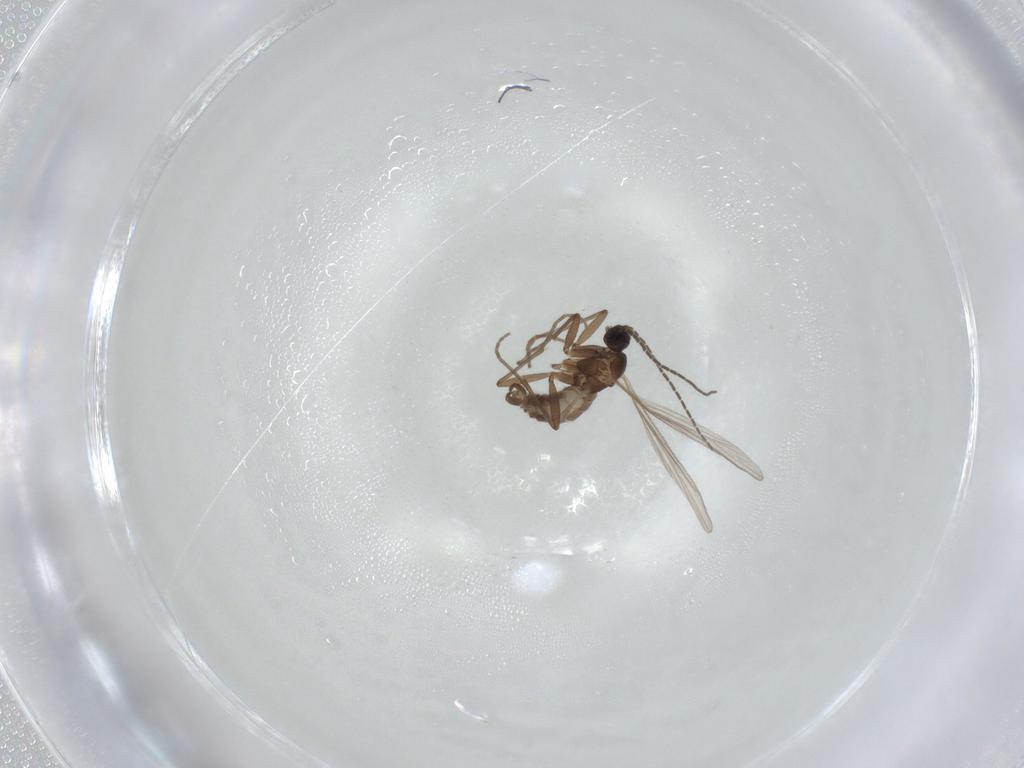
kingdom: Animalia
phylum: Arthropoda
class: Insecta
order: Diptera
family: Sciaridae
